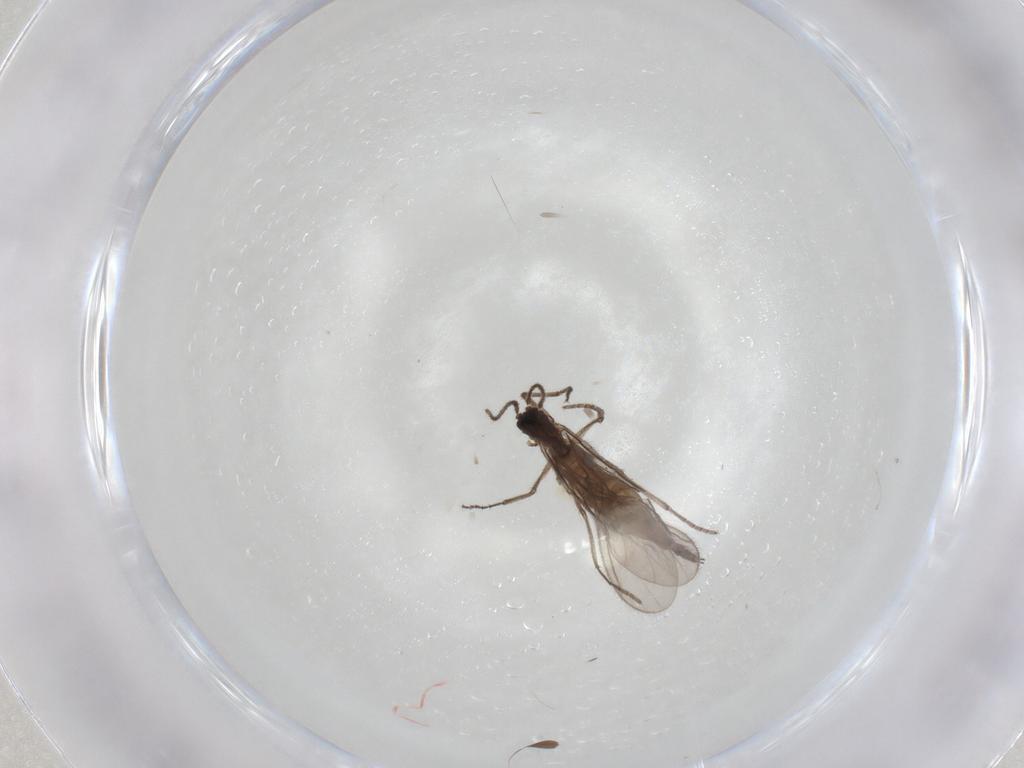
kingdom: Animalia
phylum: Arthropoda
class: Insecta
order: Diptera
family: Sciaridae
